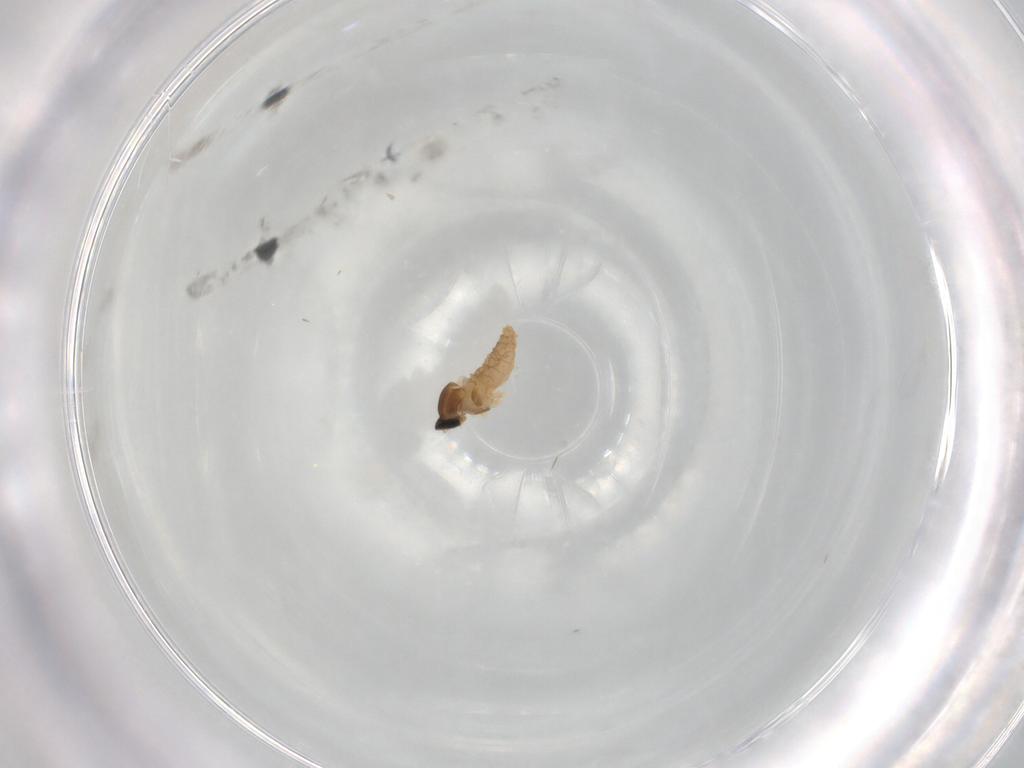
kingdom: Animalia
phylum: Arthropoda
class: Insecta
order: Diptera
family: Muscidae
